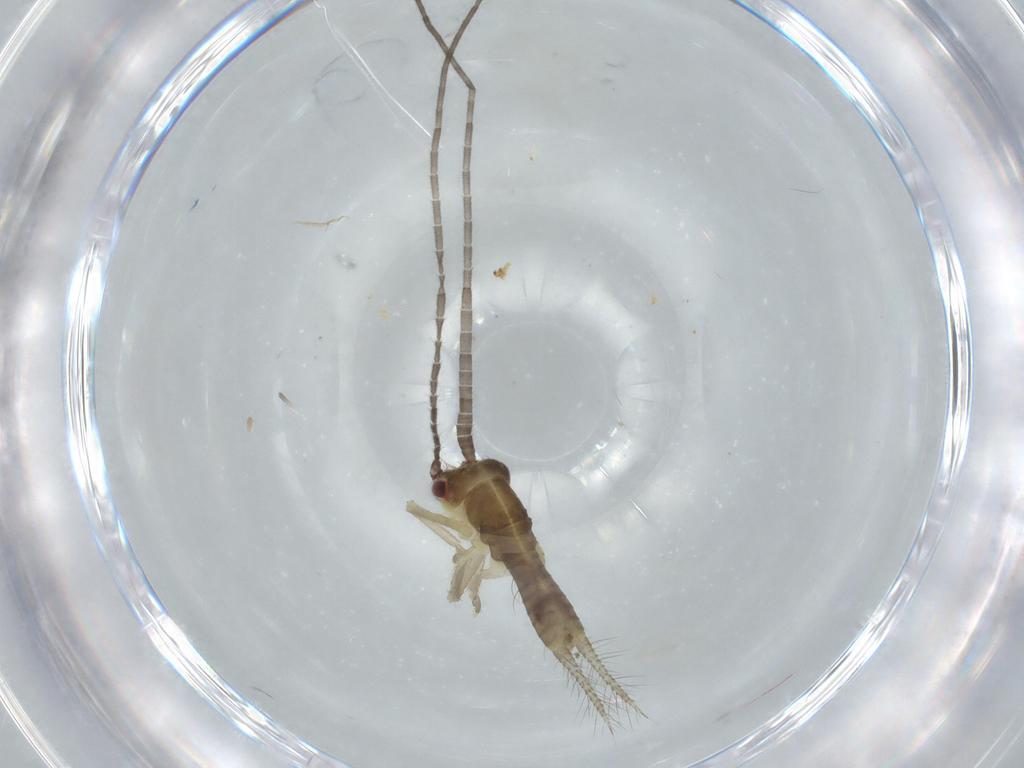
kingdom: Animalia
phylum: Arthropoda
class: Insecta
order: Orthoptera
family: Gryllidae
